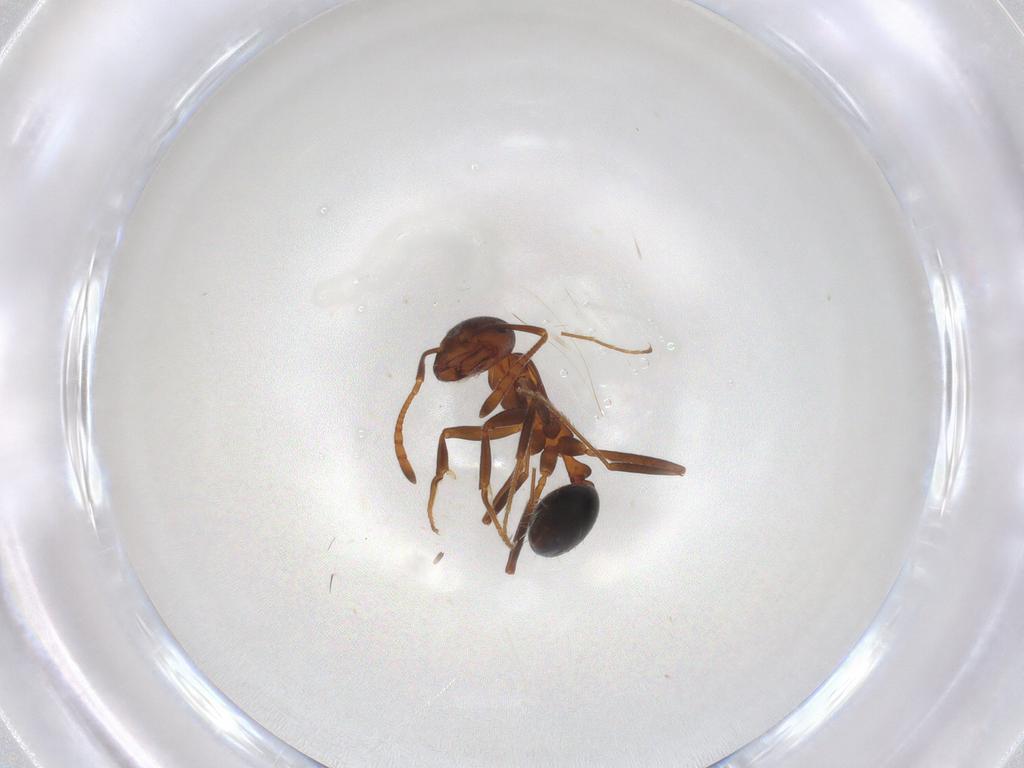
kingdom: Animalia
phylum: Arthropoda
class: Insecta
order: Hymenoptera
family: Formicidae
